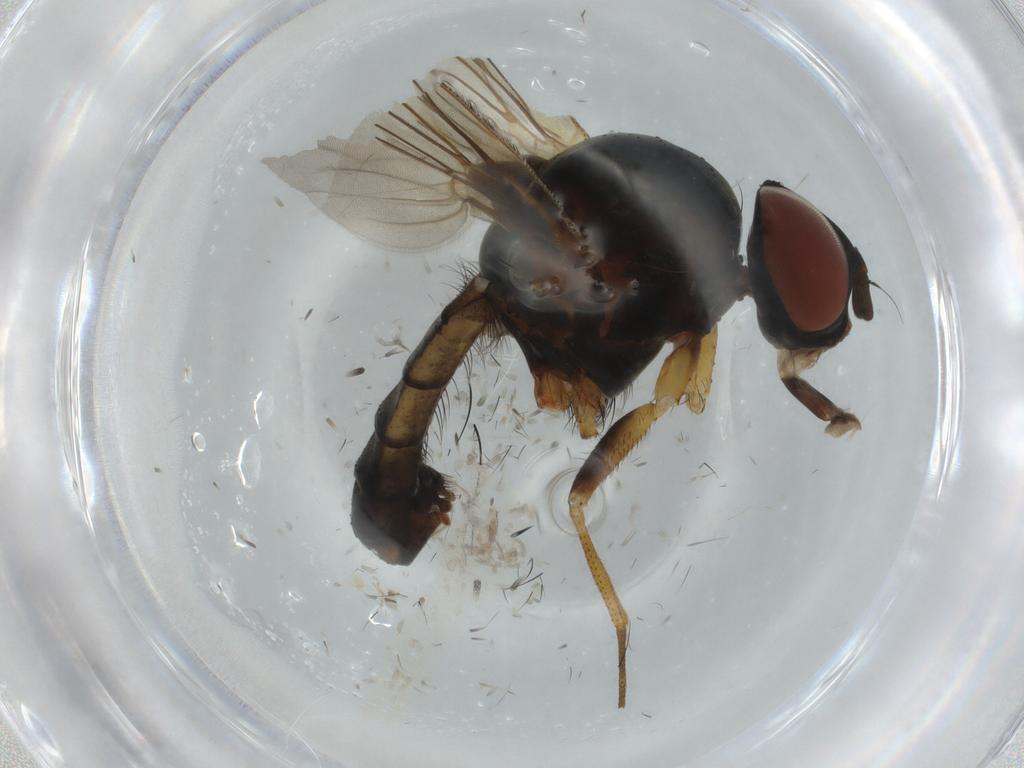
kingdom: Animalia
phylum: Arthropoda
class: Insecta
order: Diptera
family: Anthomyiidae
